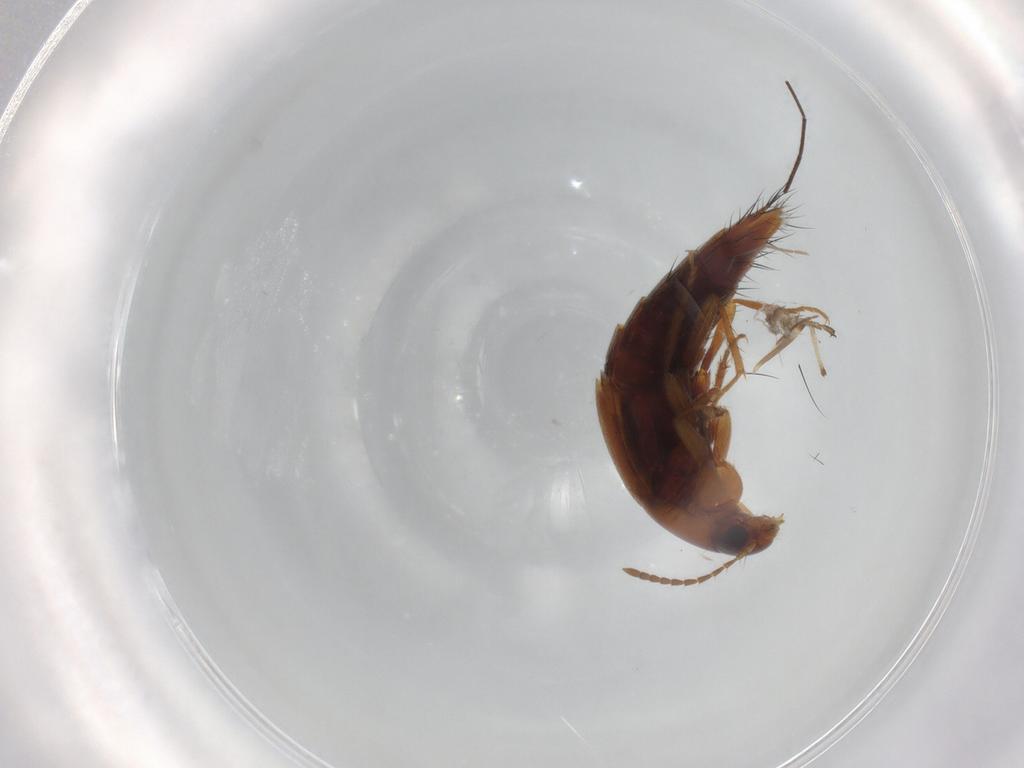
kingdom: Animalia
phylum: Arthropoda
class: Insecta
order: Coleoptera
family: Staphylinidae
